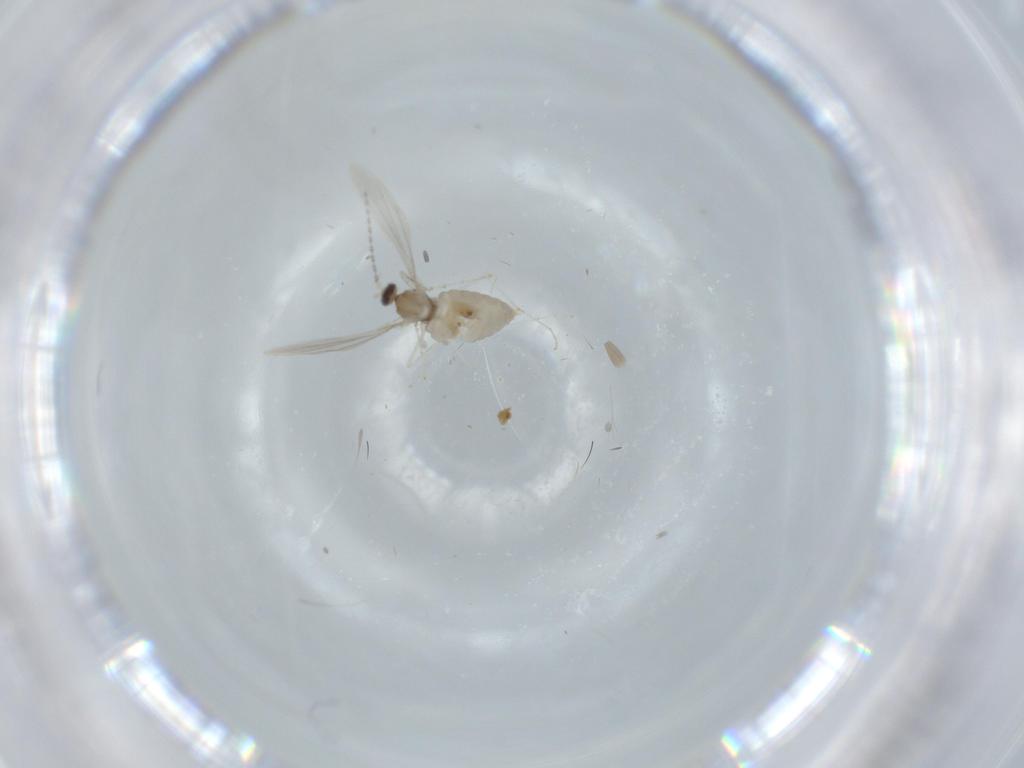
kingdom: Animalia
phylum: Arthropoda
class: Insecta
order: Diptera
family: Cecidomyiidae
